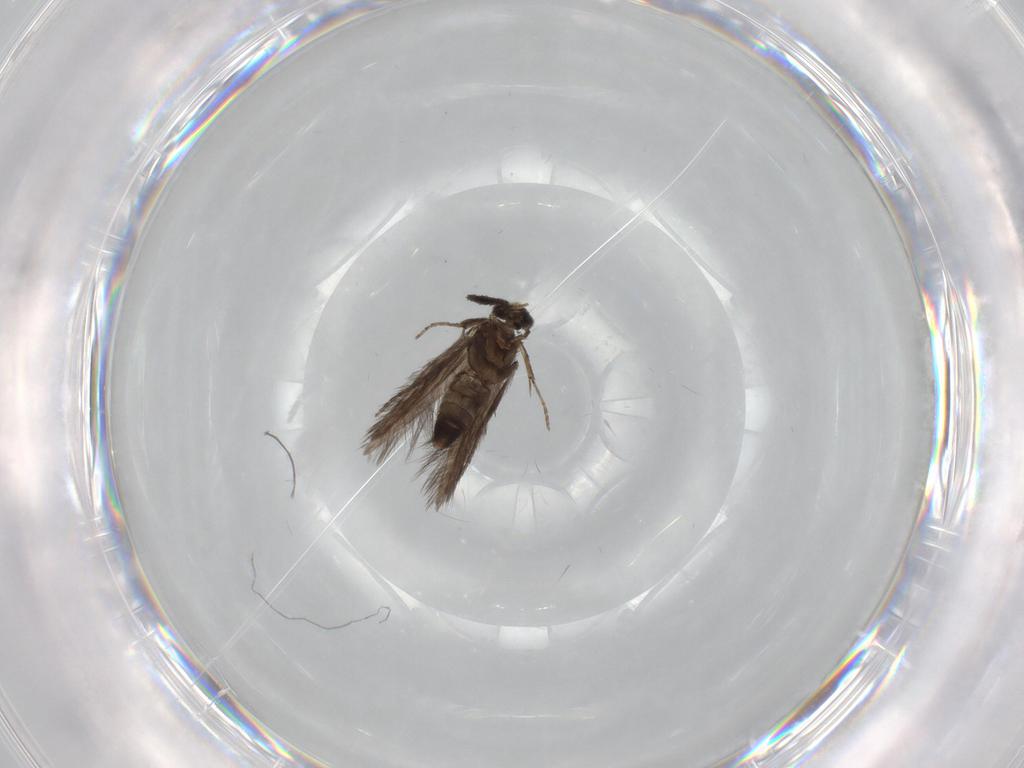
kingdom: Animalia
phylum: Arthropoda
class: Insecta
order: Trichoptera
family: Hydroptilidae
